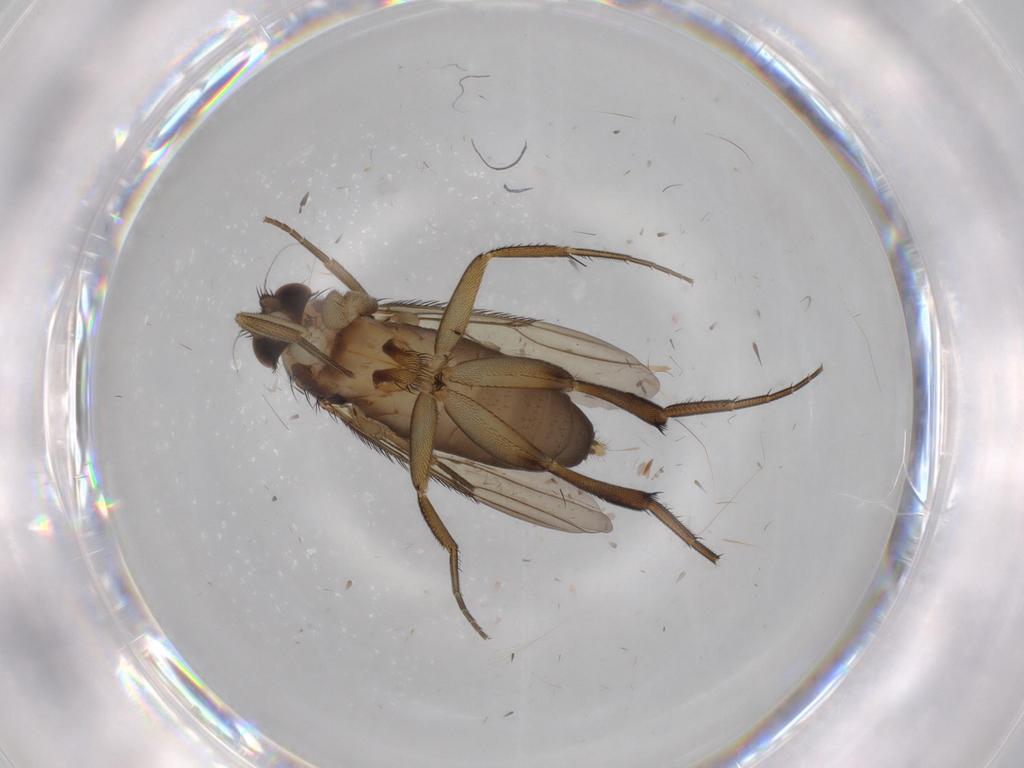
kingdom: Animalia
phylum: Arthropoda
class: Insecta
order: Diptera
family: Phoridae
